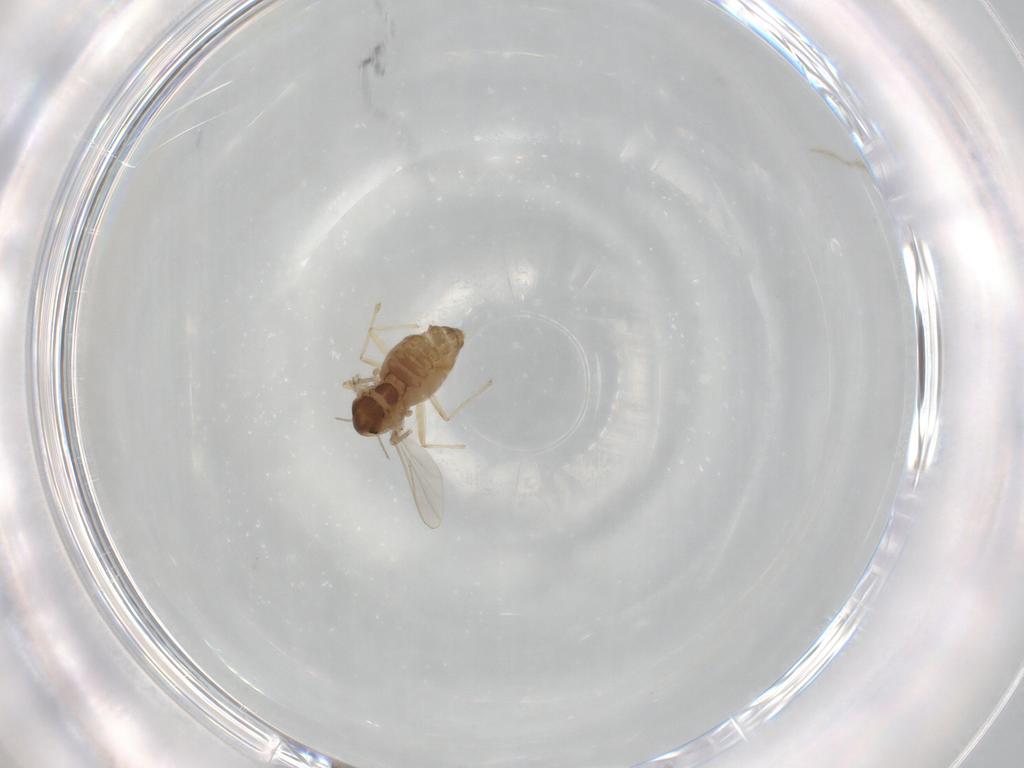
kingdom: Animalia
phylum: Arthropoda
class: Insecta
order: Diptera
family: Chironomidae
